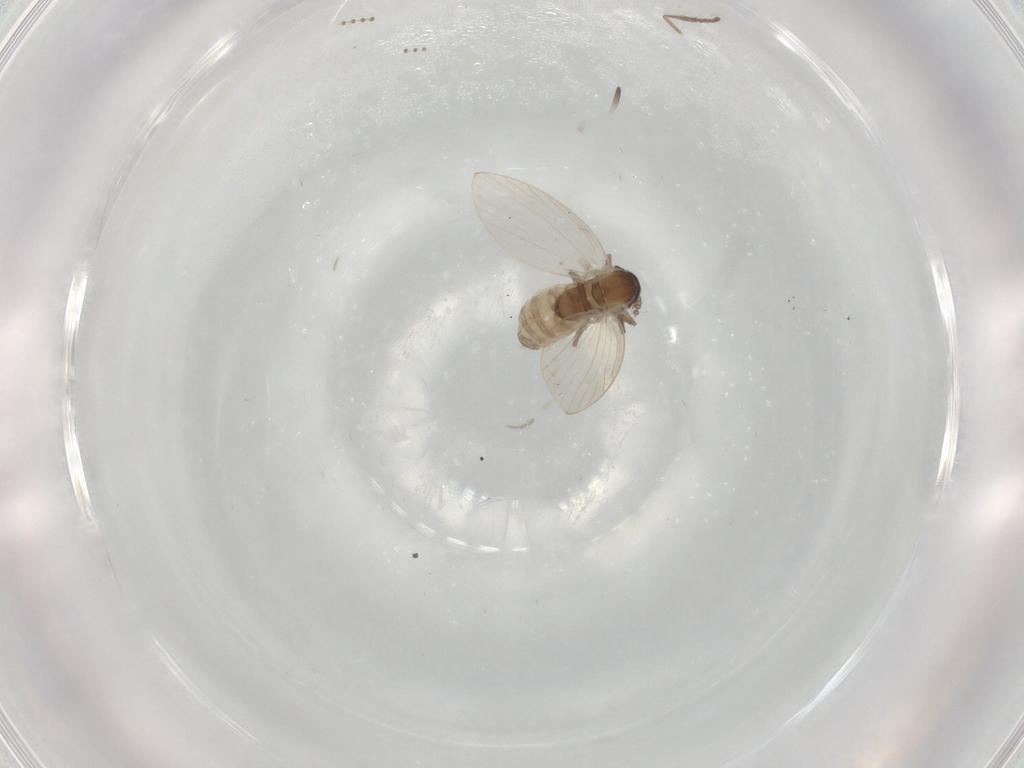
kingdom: Animalia
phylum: Arthropoda
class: Insecta
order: Diptera
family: Psychodidae
